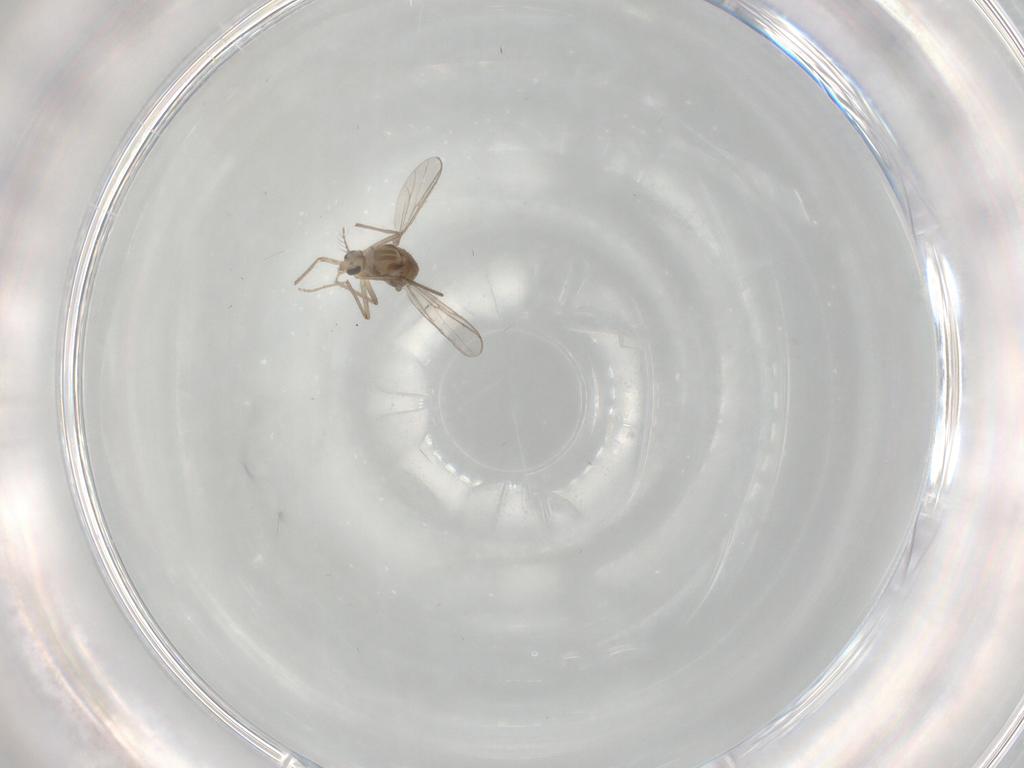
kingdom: Animalia
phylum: Arthropoda
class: Insecta
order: Diptera
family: Chironomidae
